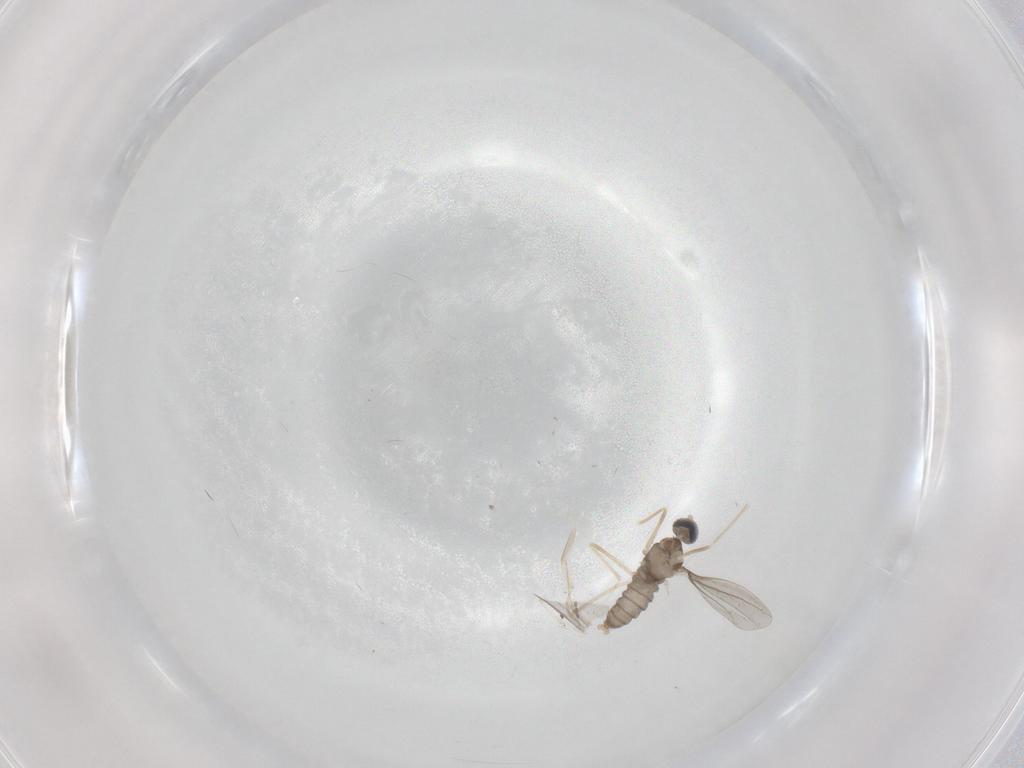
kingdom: Animalia
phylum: Arthropoda
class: Insecta
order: Diptera
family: Cecidomyiidae
